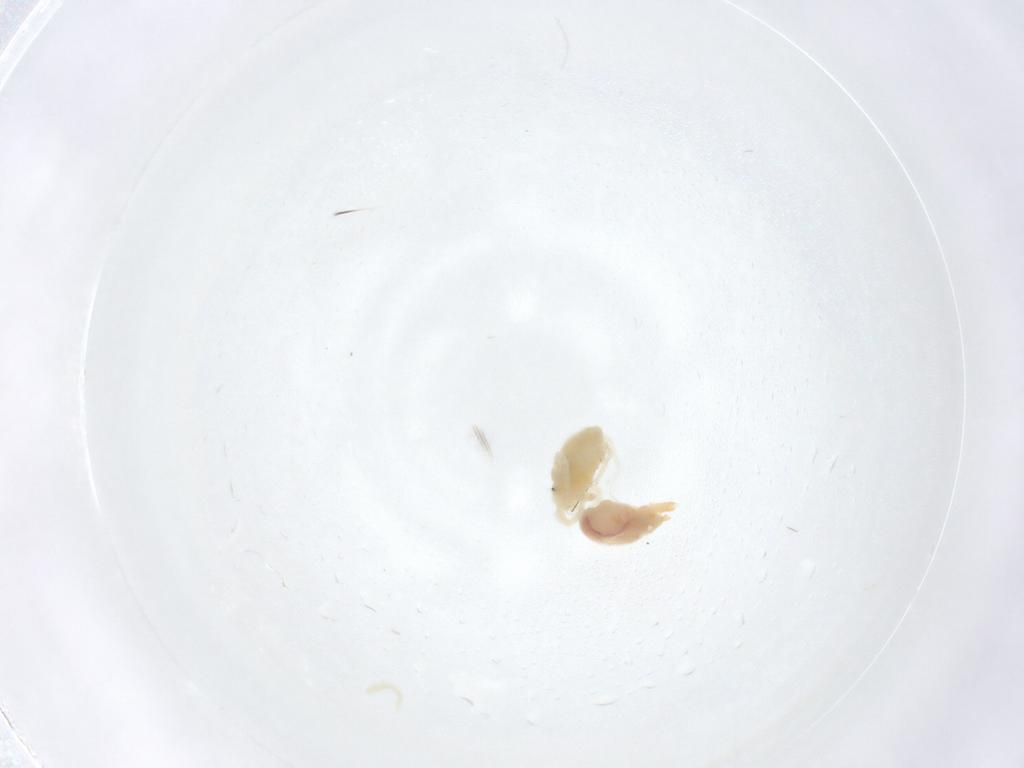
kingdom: Animalia
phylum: Arthropoda
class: Arachnida
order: Trombidiformes
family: Anystidae
